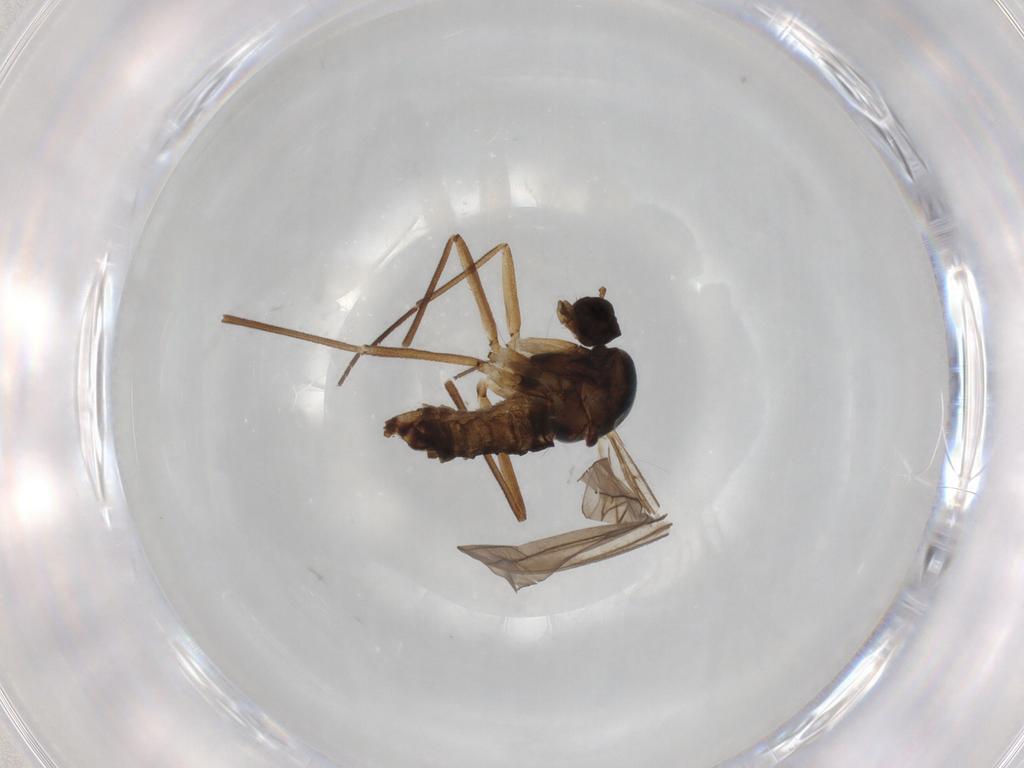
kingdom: Animalia
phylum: Arthropoda
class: Insecta
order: Diptera
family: Empididae
